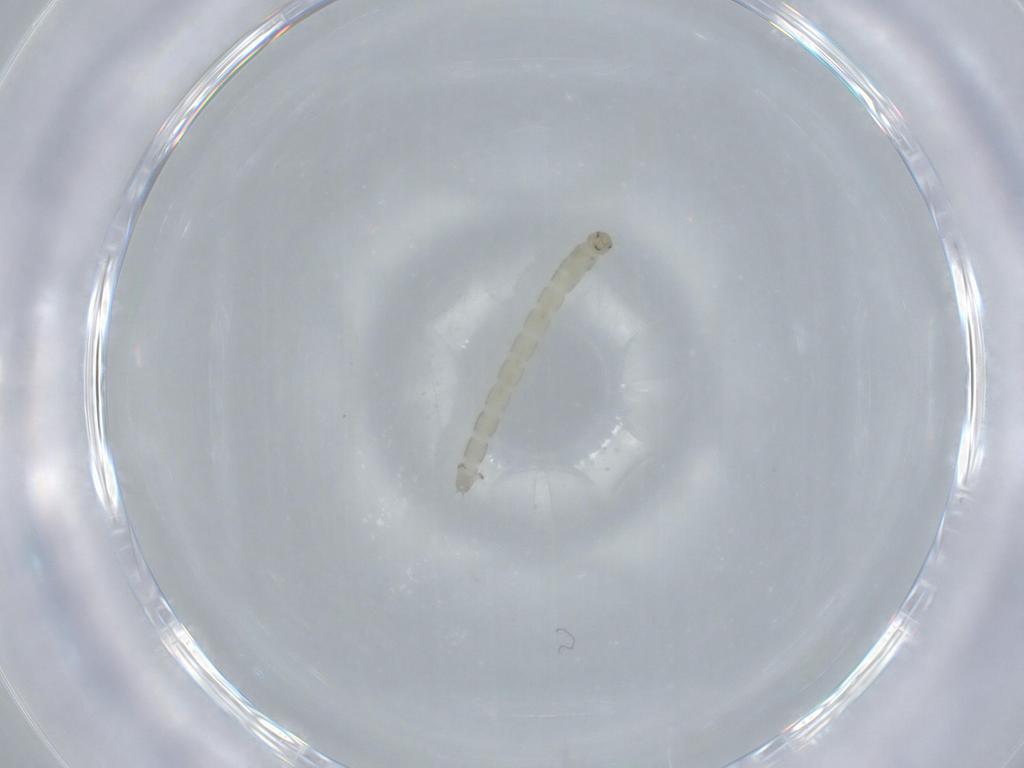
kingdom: Animalia
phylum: Arthropoda
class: Insecta
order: Diptera
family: Chironomidae
